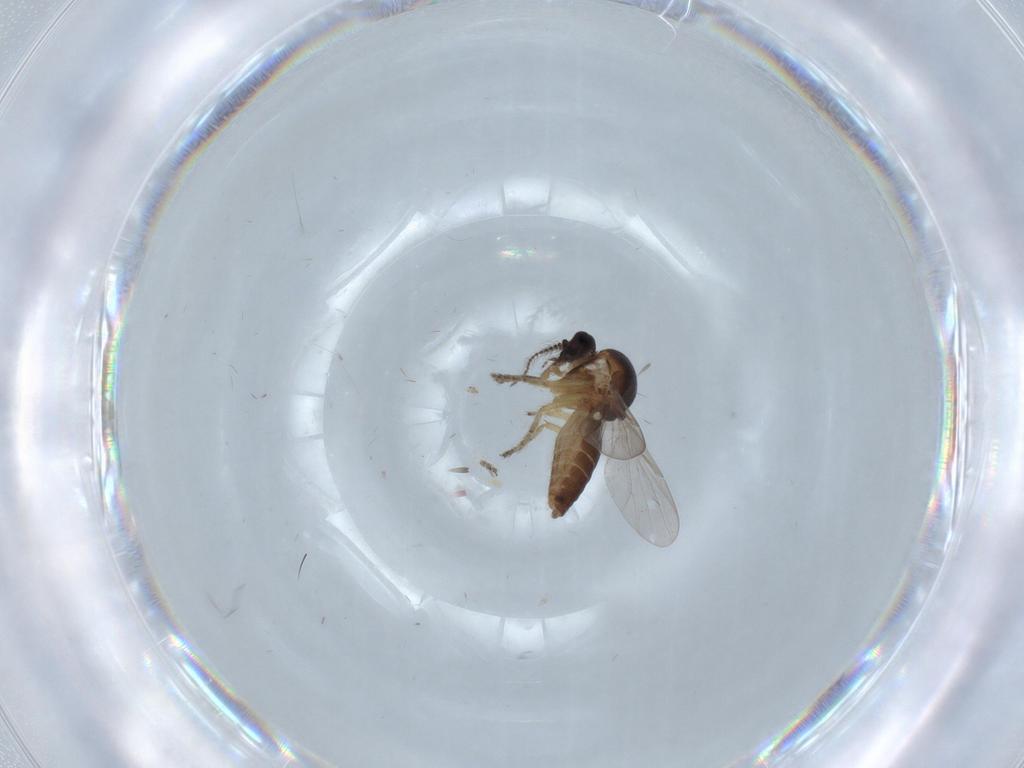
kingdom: Animalia
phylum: Arthropoda
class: Insecta
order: Diptera
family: Ceratopogonidae
